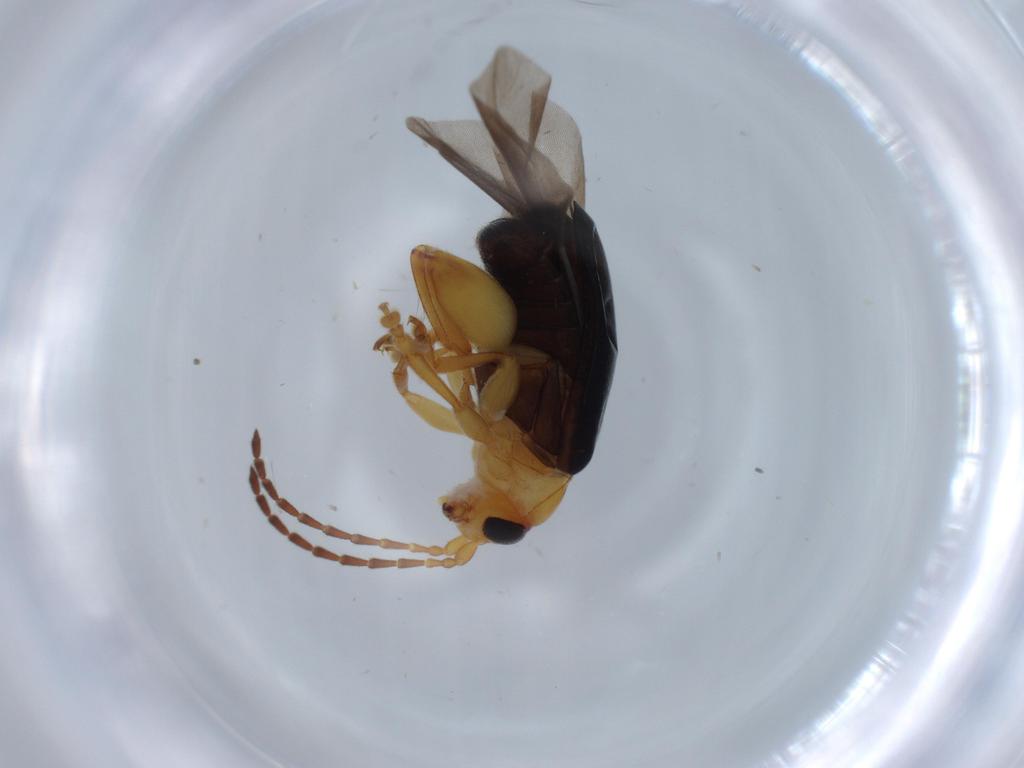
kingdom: Animalia
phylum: Arthropoda
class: Insecta
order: Coleoptera
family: Chrysomelidae
